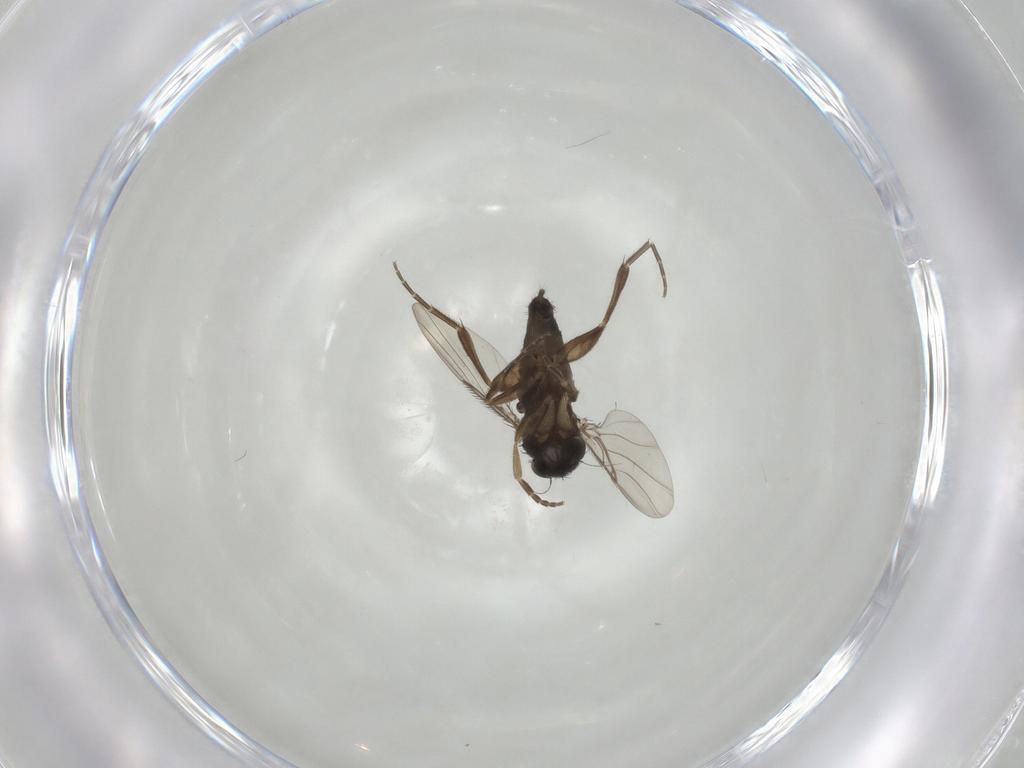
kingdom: Animalia
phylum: Arthropoda
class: Insecta
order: Diptera
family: Phoridae
